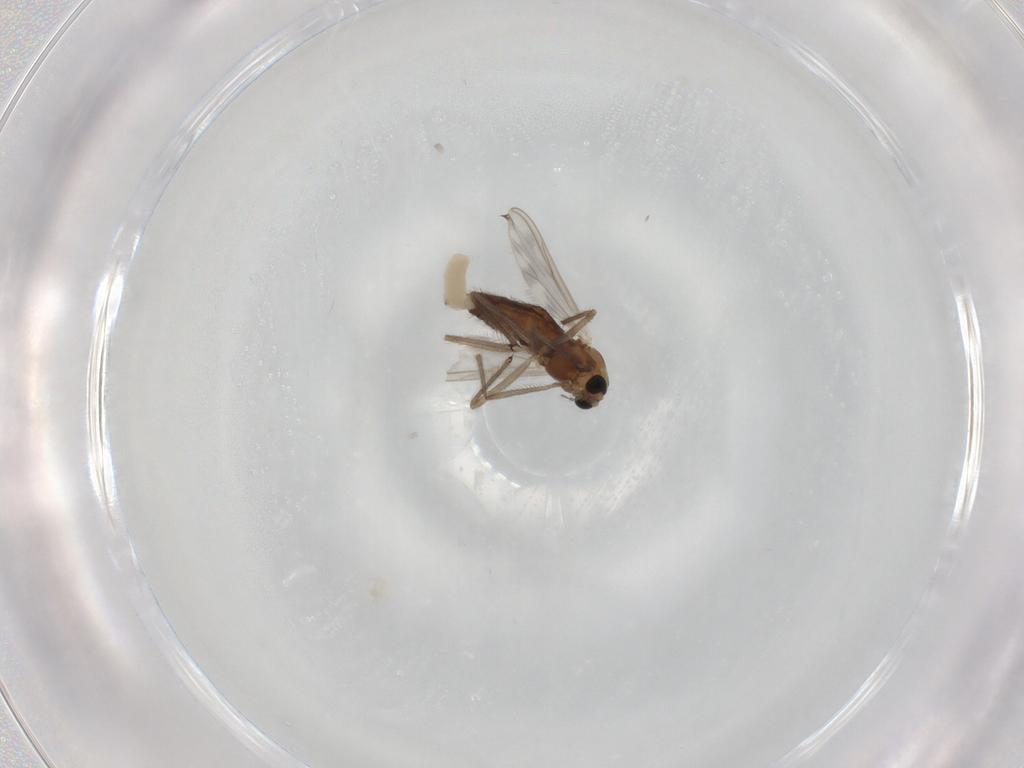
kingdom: Animalia
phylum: Arthropoda
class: Insecta
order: Diptera
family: Chironomidae
